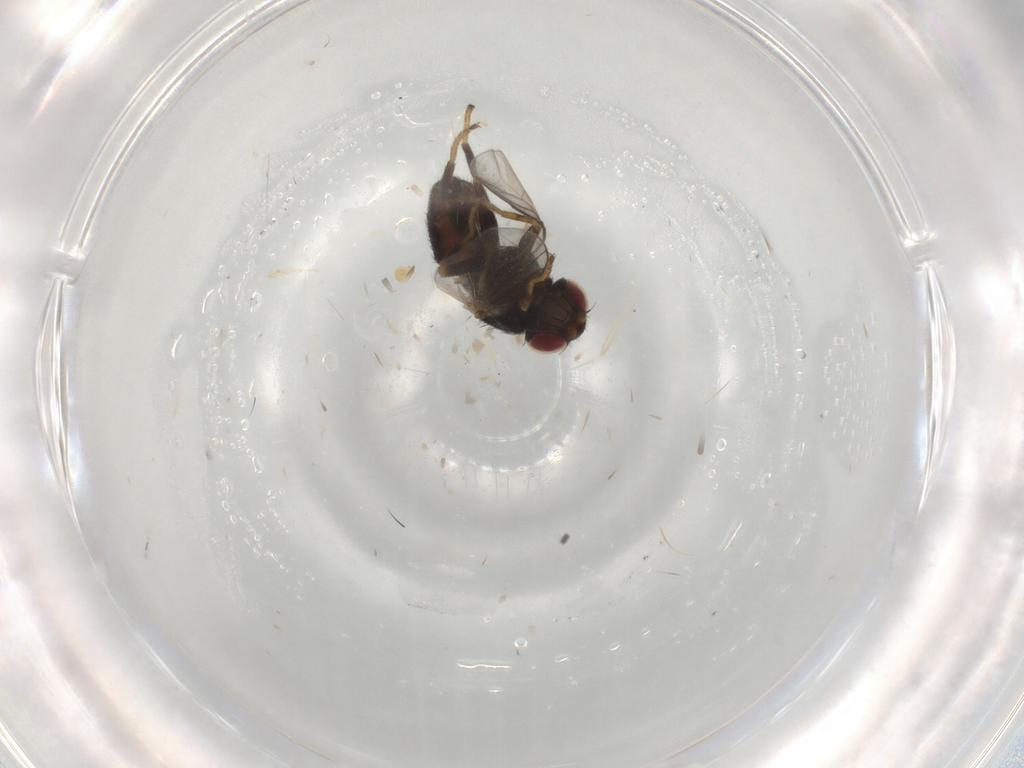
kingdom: Animalia
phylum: Arthropoda
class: Insecta
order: Diptera
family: Chloropidae
